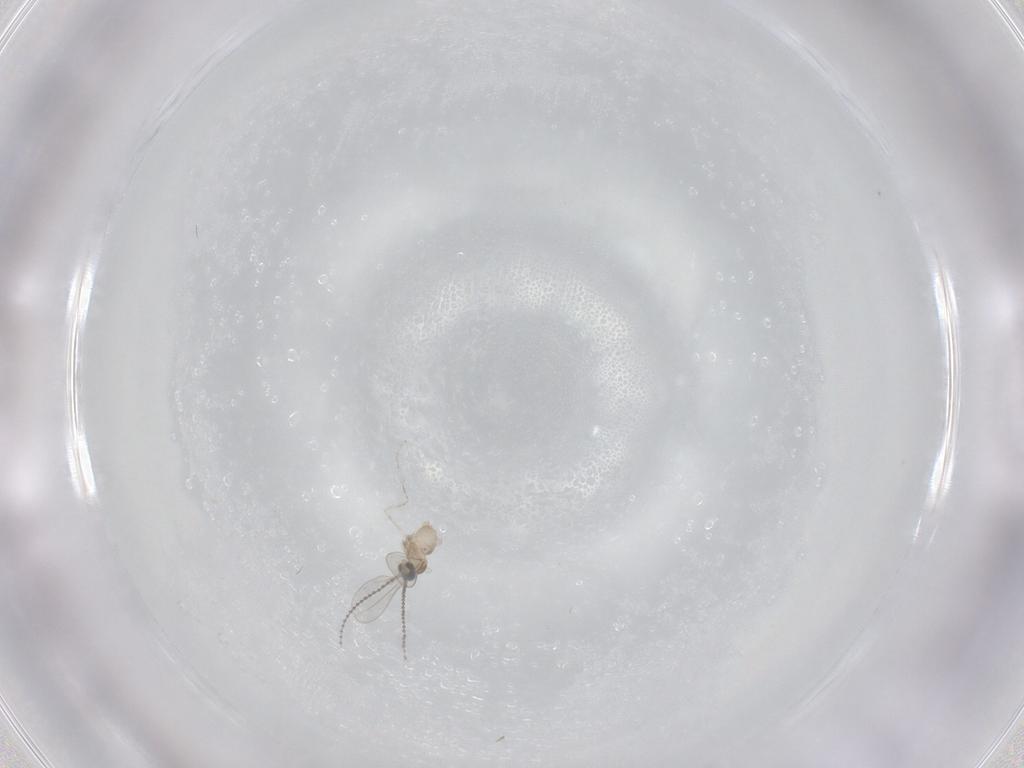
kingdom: Animalia
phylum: Arthropoda
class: Insecta
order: Diptera
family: Cecidomyiidae
